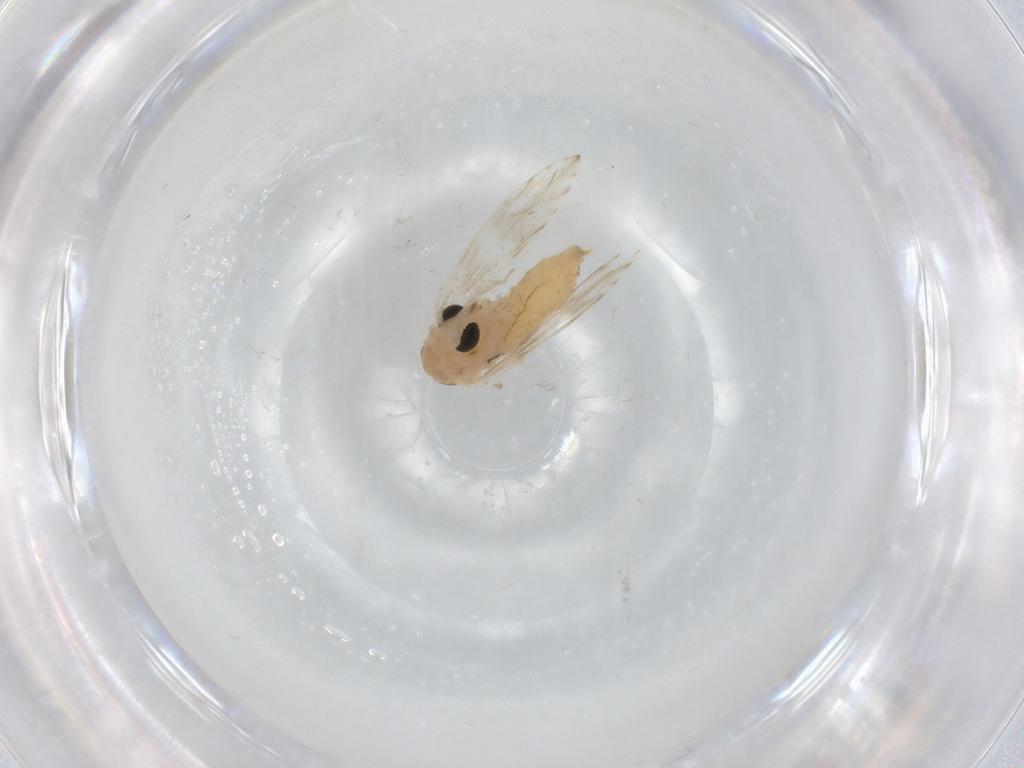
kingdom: Animalia
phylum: Arthropoda
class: Insecta
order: Diptera
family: Psychodidae
